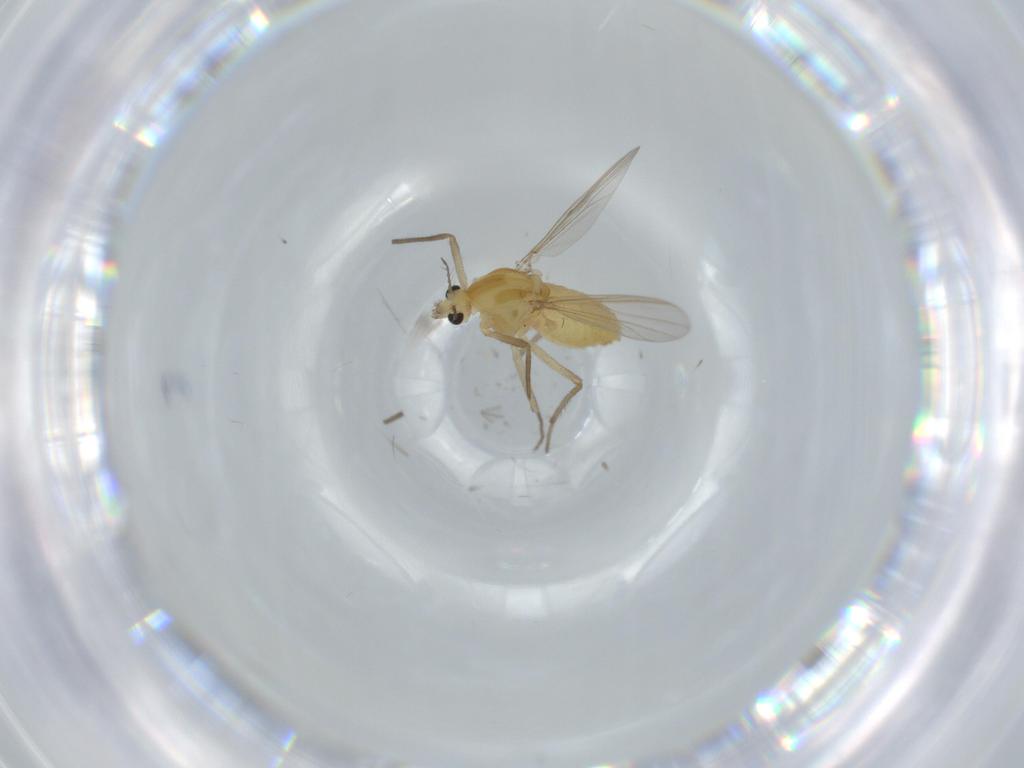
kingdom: Animalia
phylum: Arthropoda
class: Insecta
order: Diptera
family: Chironomidae
